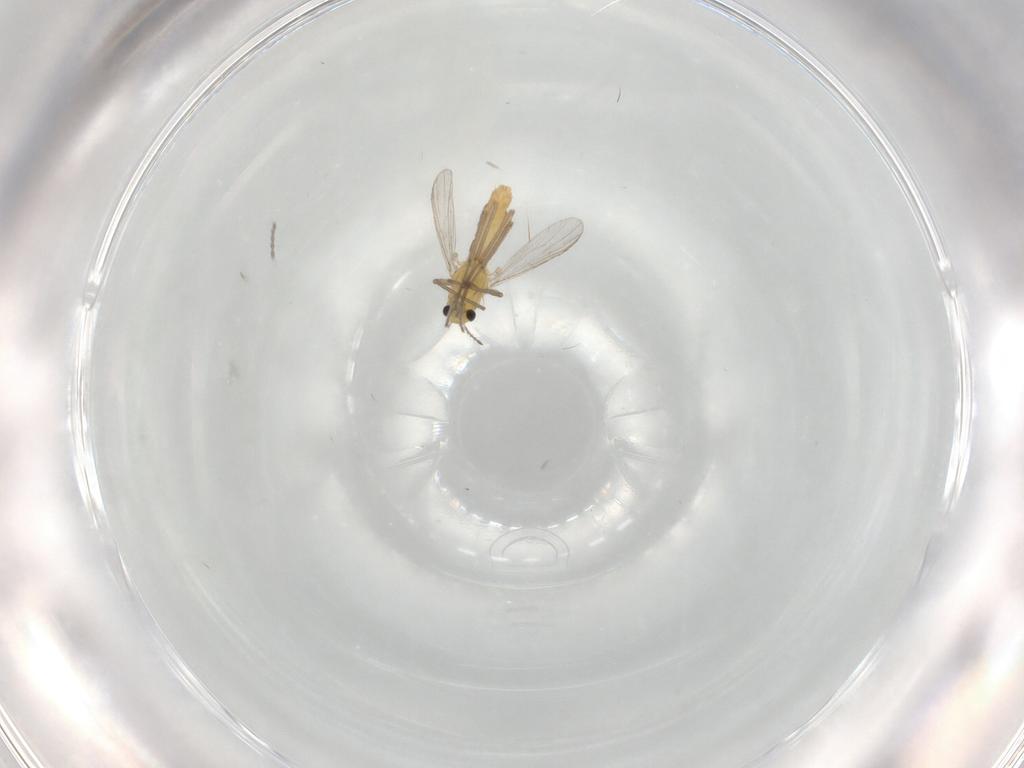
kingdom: Animalia
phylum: Arthropoda
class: Insecta
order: Diptera
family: Chironomidae
